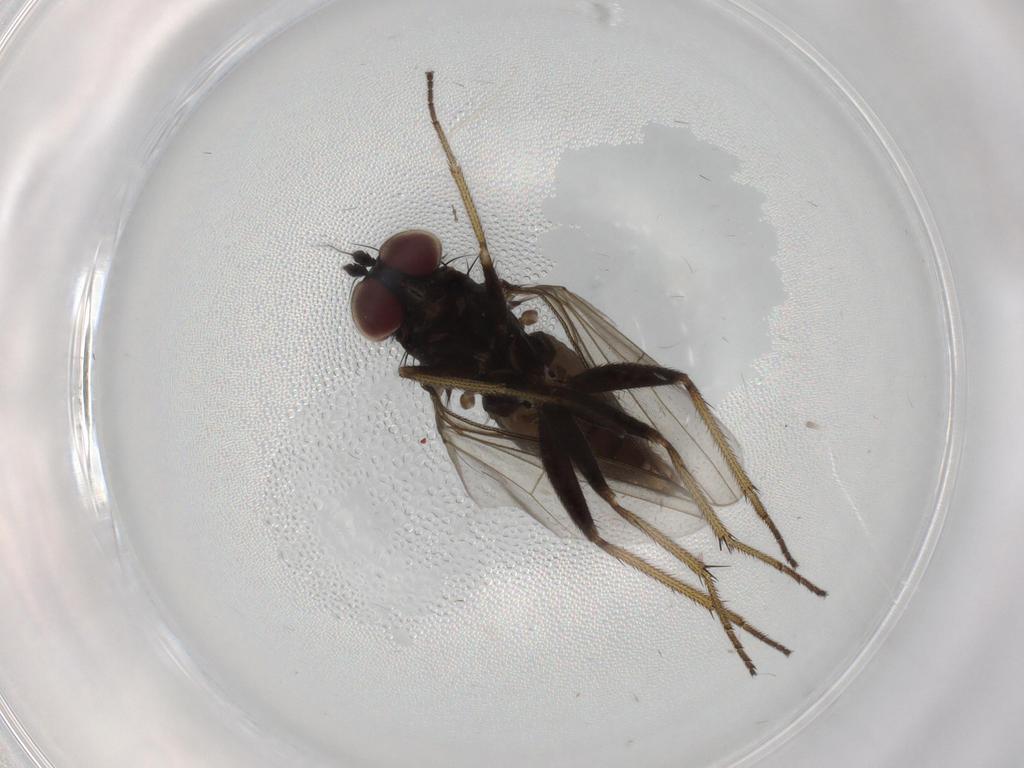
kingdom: Animalia
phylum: Arthropoda
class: Insecta
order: Diptera
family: Dolichopodidae
